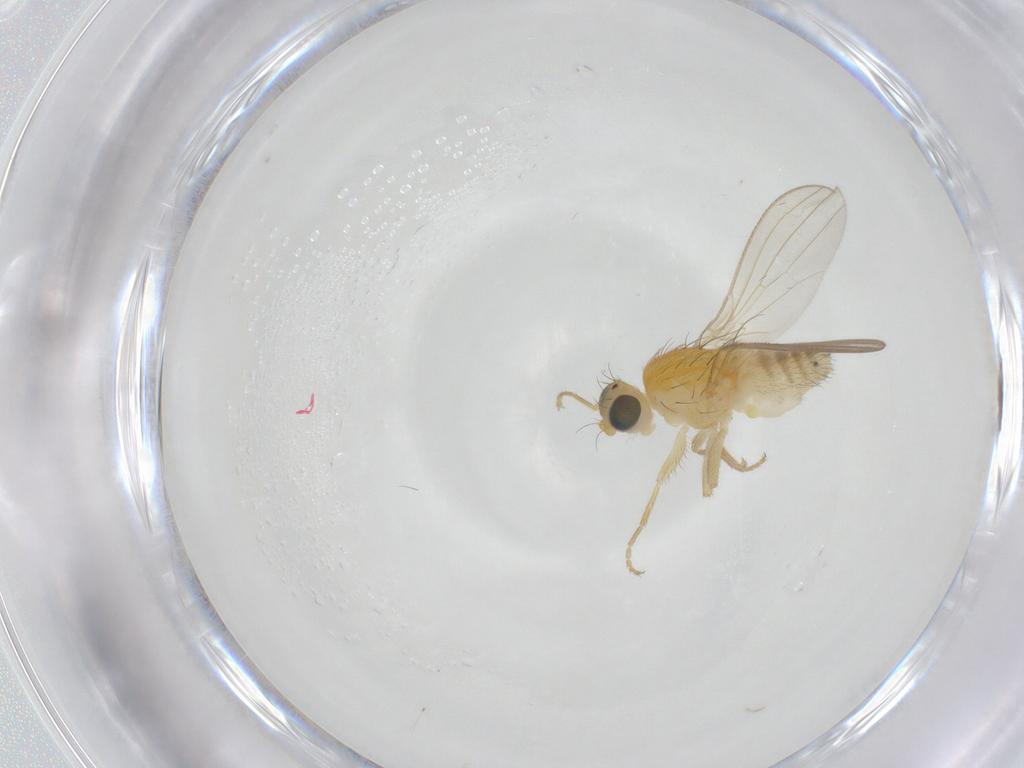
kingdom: Animalia
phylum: Arthropoda
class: Insecta
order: Diptera
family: Chyromyidae
